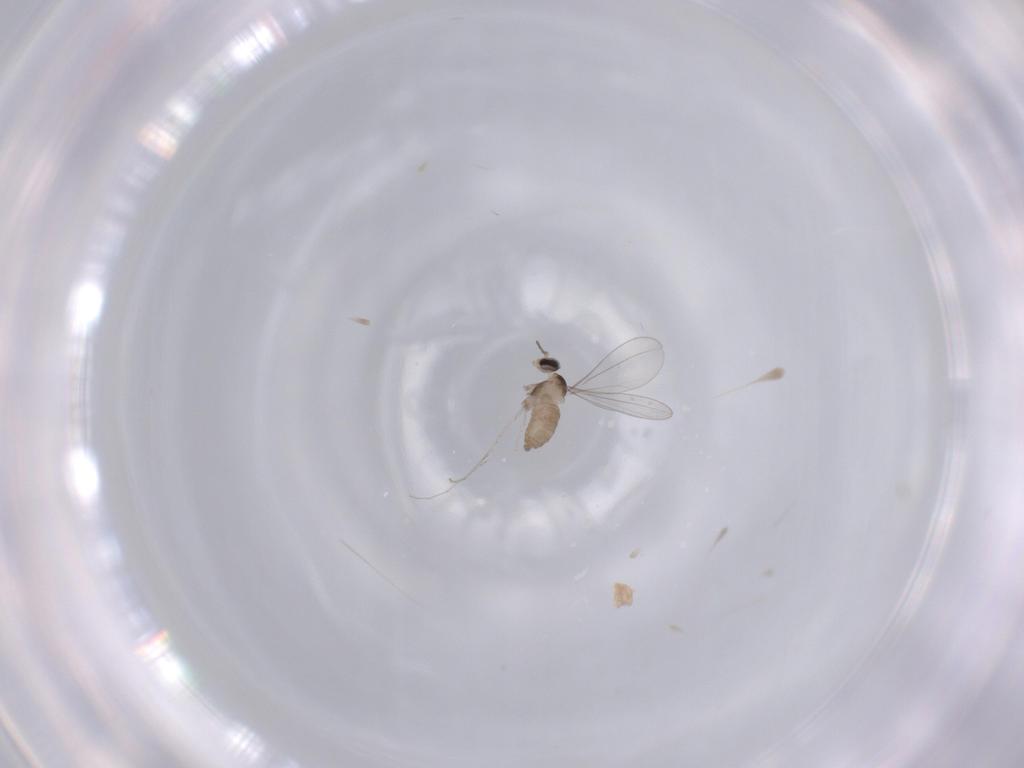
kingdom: Animalia
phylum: Arthropoda
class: Insecta
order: Diptera
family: Cecidomyiidae
